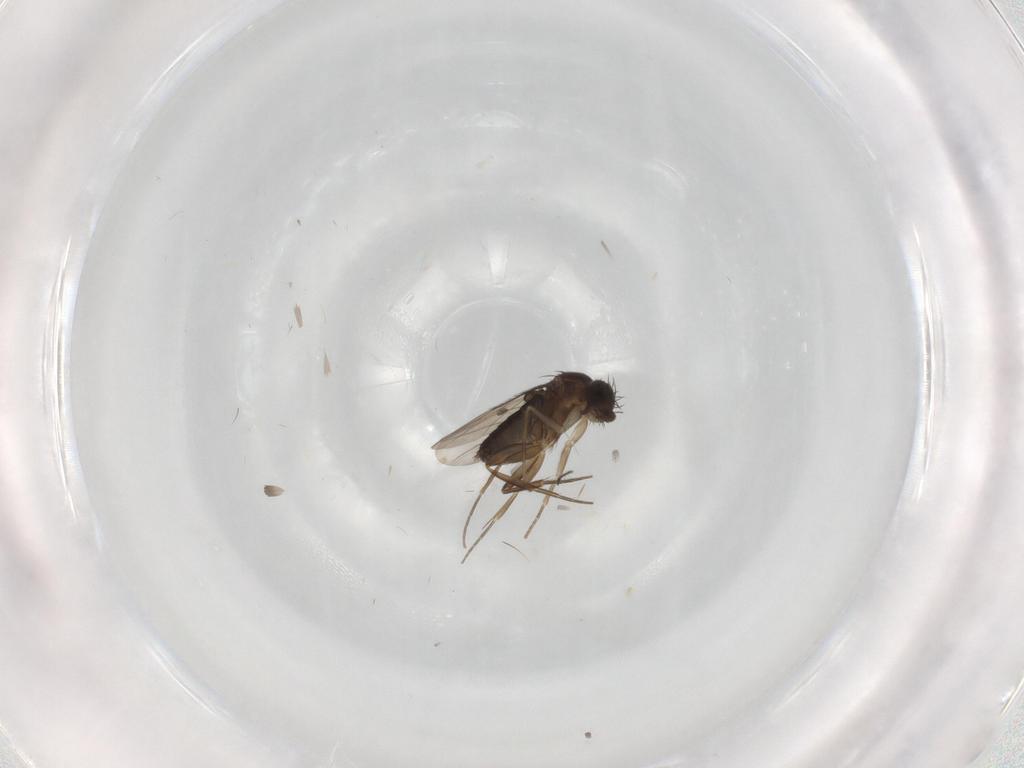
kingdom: Animalia
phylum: Arthropoda
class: Insecta
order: Diptera
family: Phoridae
